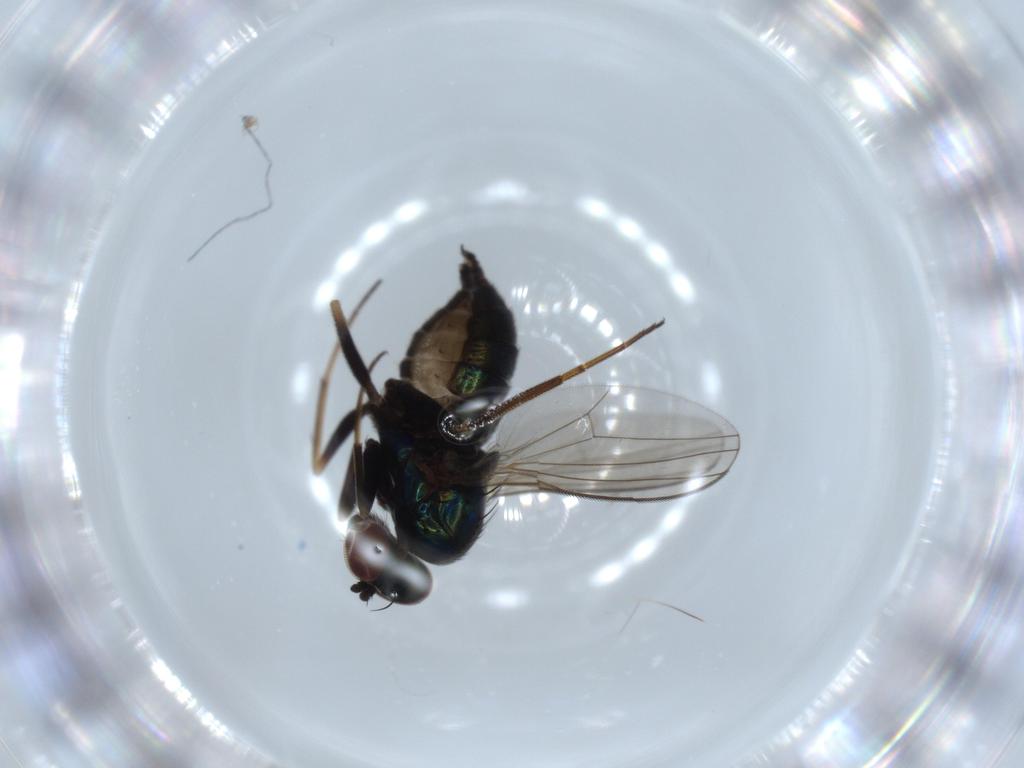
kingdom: Animalia
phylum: Arthropoda
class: Insecta
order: Diptera
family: Dolichopodidae
